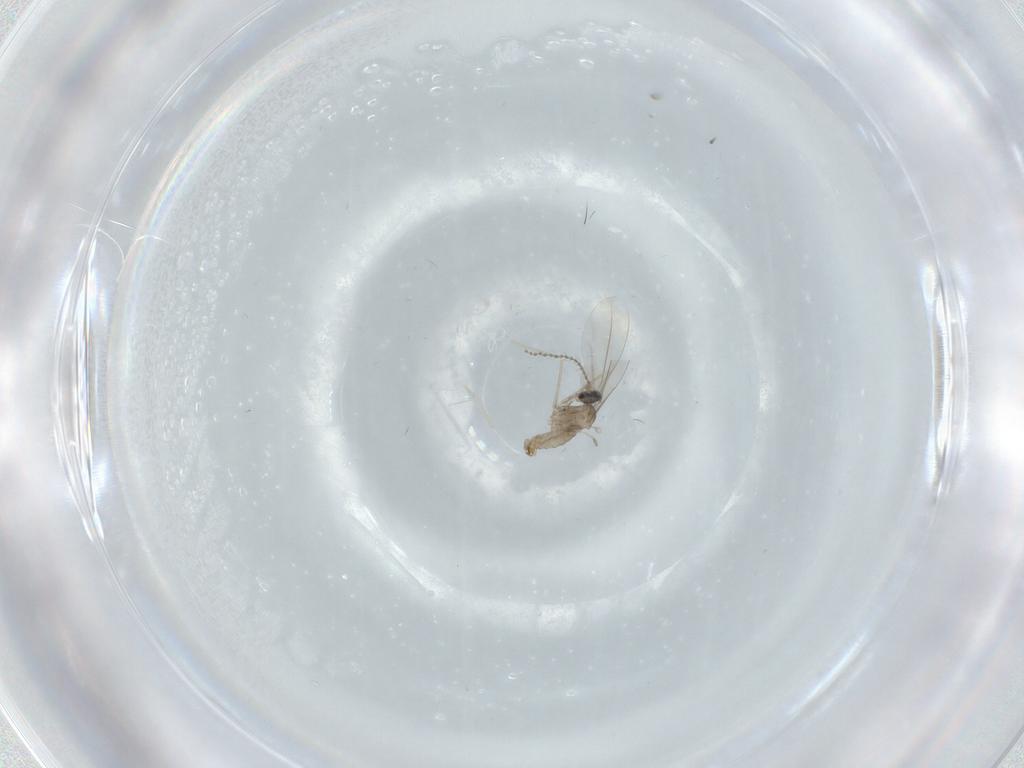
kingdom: Animalia
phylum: Arthropoda
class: Insecta
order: Diptera
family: Cecidomyiidae
